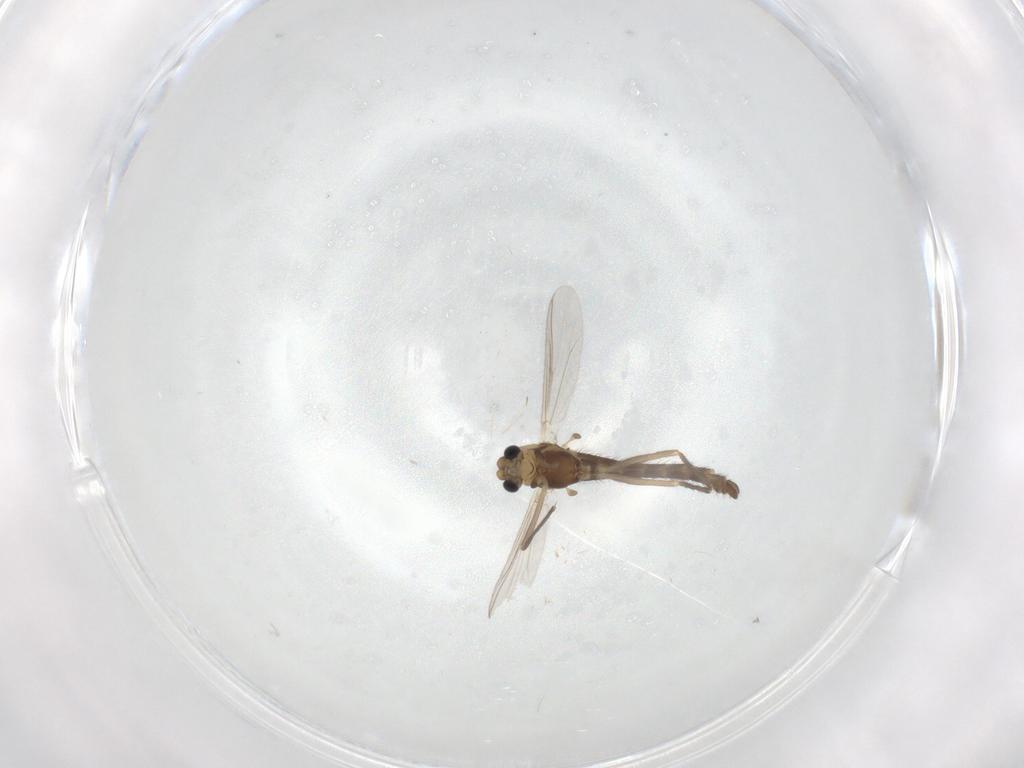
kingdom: Animalia
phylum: Arthropoda
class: Insecta
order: Diptera
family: Chironomidae
